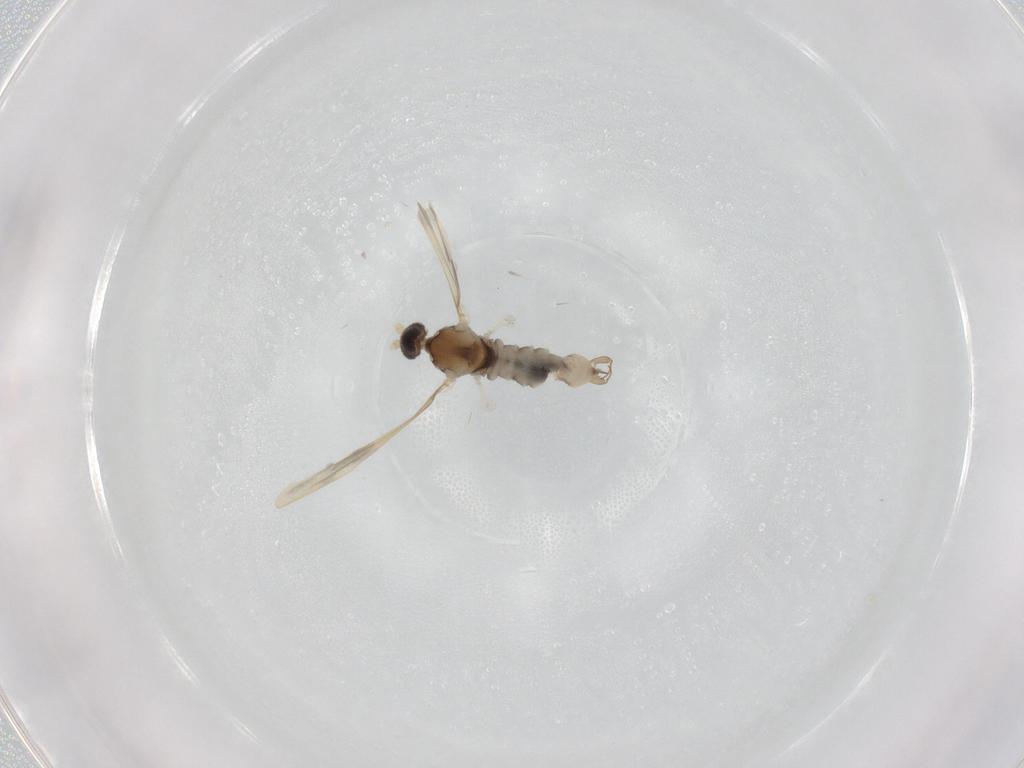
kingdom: Animalia
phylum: Arthropoda
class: Insecta
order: Diptera
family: Cecidomyiidae
